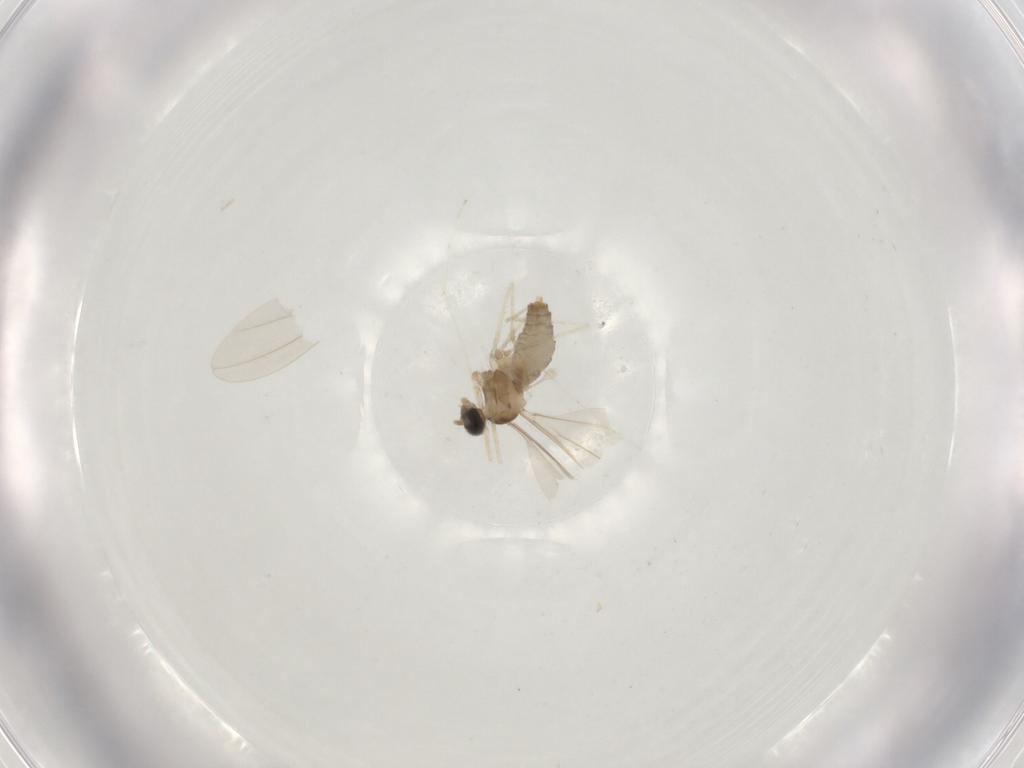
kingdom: Animalia
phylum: Arthropoda
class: Insecta
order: Diptera
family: Cecidomyiidae
